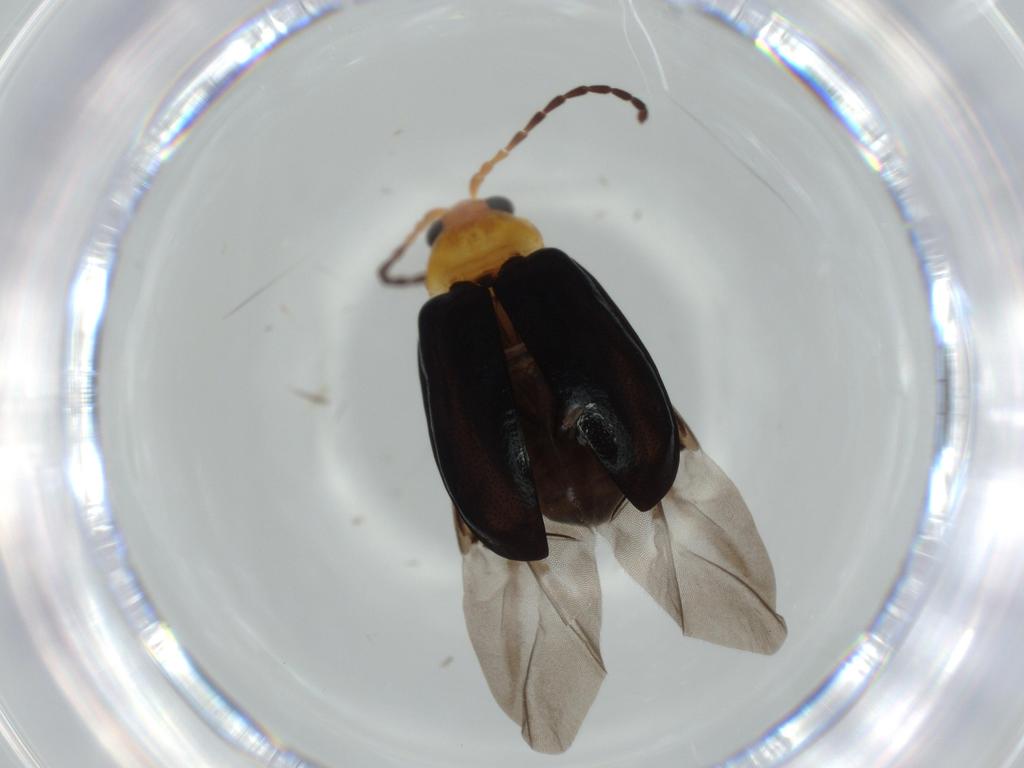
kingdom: Animalia
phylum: Arthropoda
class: Insecta
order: Coleoptera
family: Chrysomelidae
